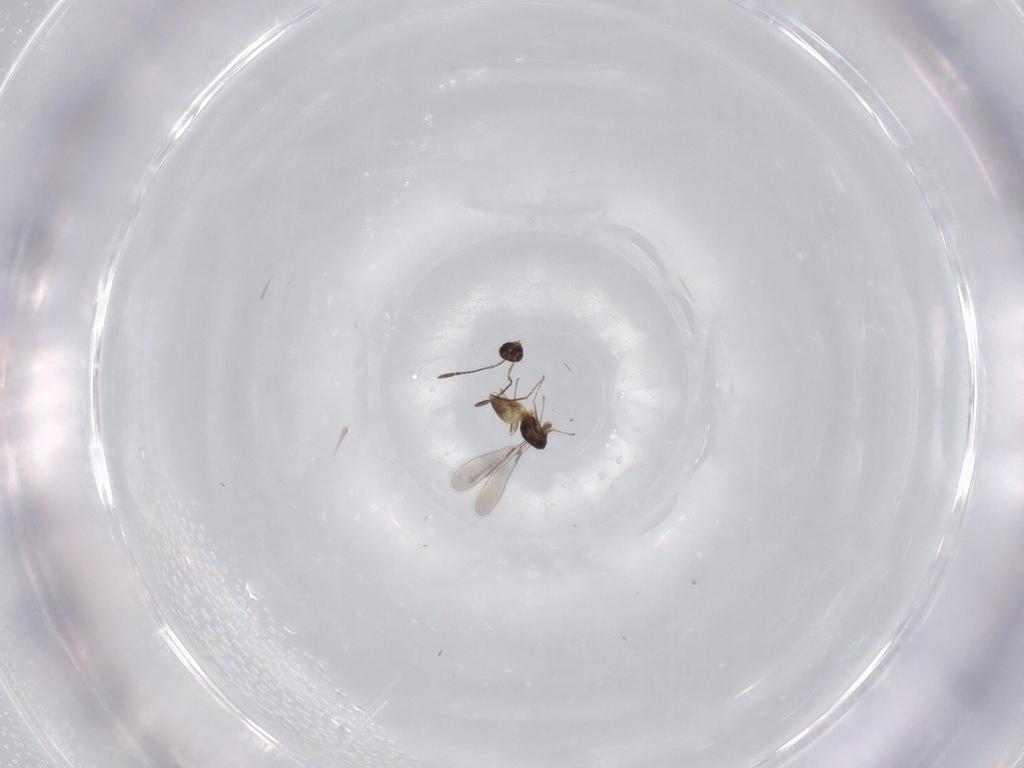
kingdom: Animalia
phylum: Arthropoda
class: Insecta
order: Hymenoptera
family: Mymaridae
